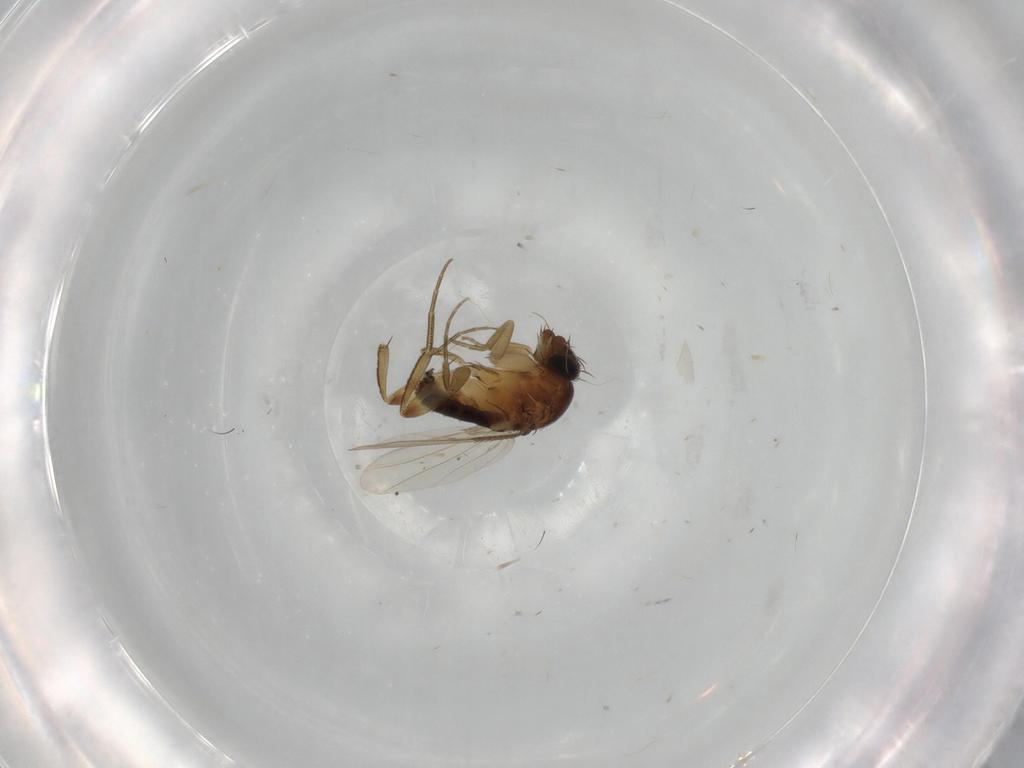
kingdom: Animalia
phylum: Arthropoda
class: Insecta
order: Diptera
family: Phoridae
